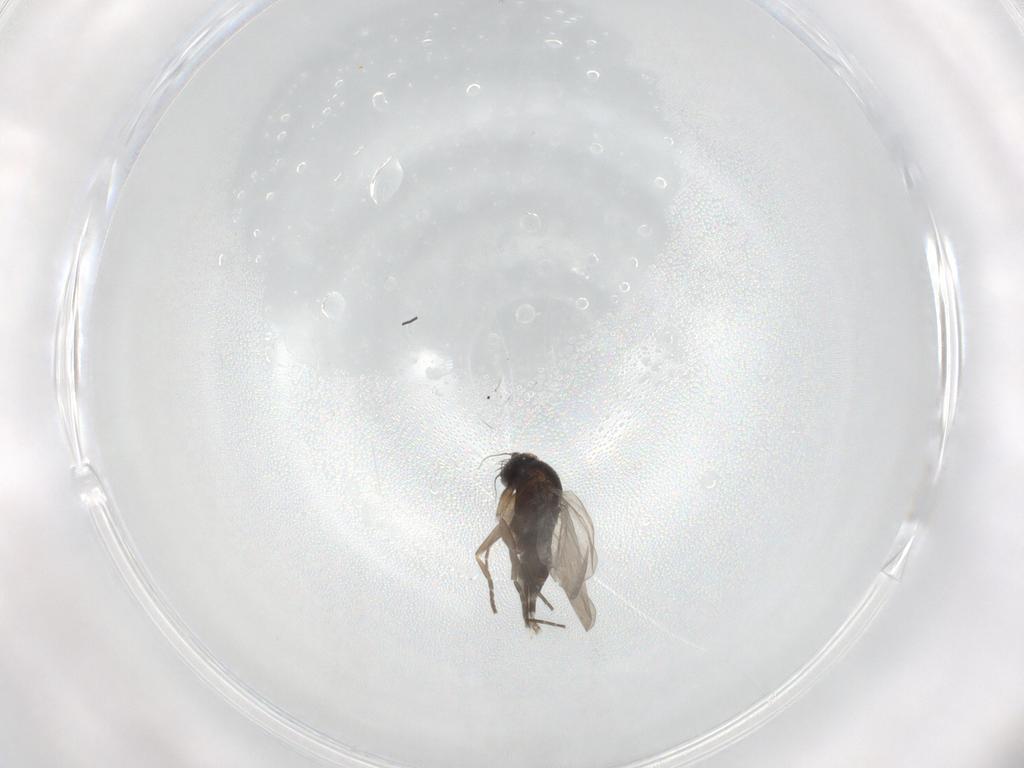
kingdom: Animalia
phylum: Arthropoda
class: Insecta
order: Diptera
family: Phoridae
